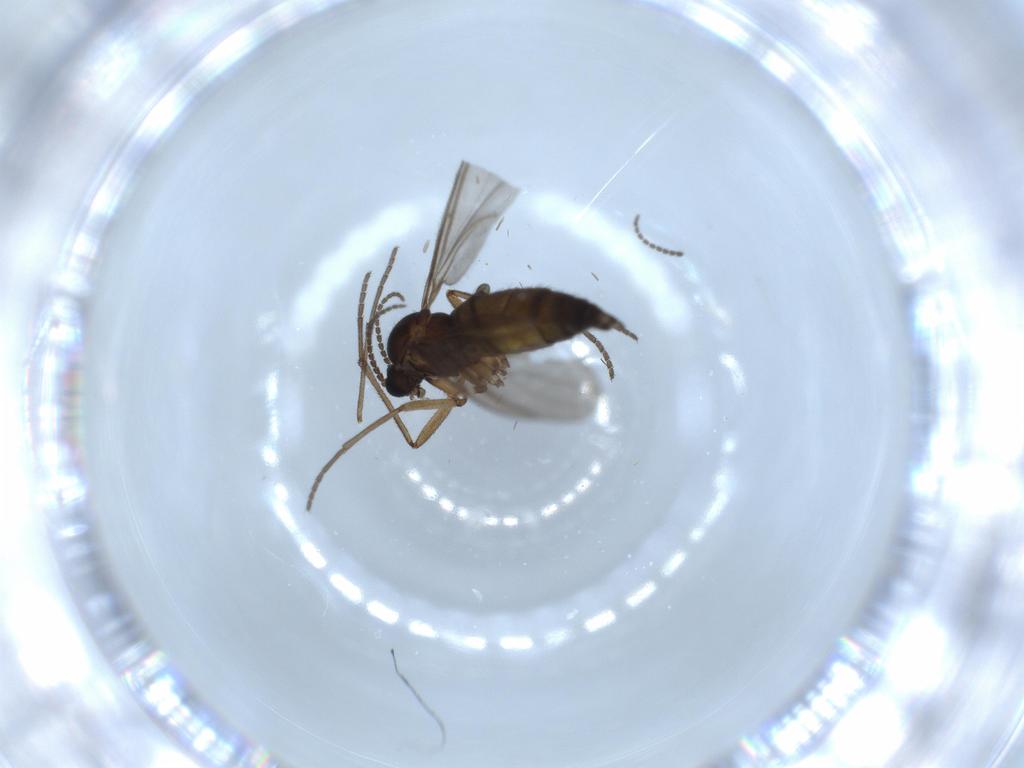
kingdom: Animalia
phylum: Arthropoda
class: Insecta
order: Diptera
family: Sciaridae
